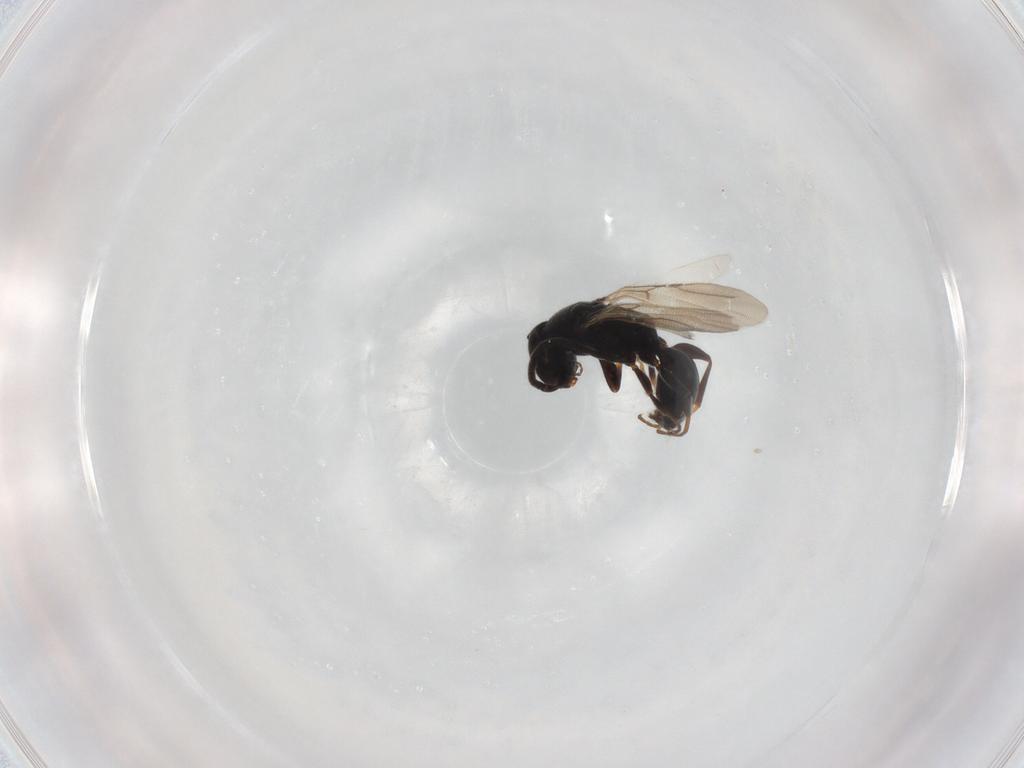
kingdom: Animalia
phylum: Arthropoda
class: Insecta
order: Hymenoptera
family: Bethylidae
